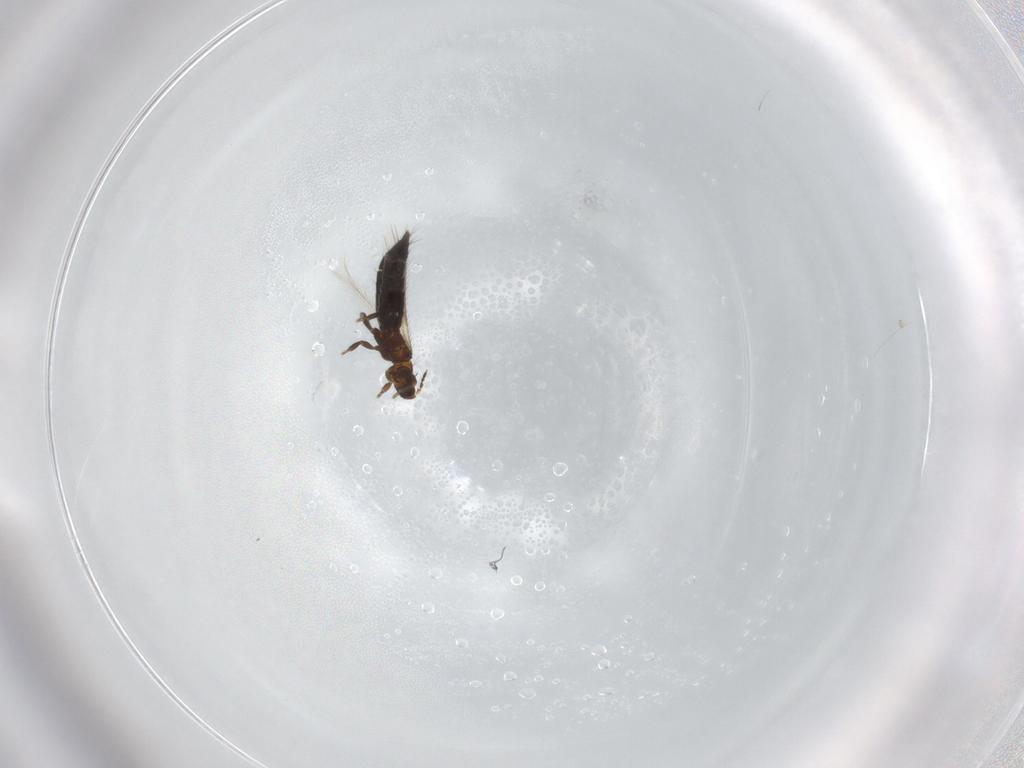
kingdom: Animalia
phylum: Arthropoda
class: Insecta
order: Thysanoptera
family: Thripidae
